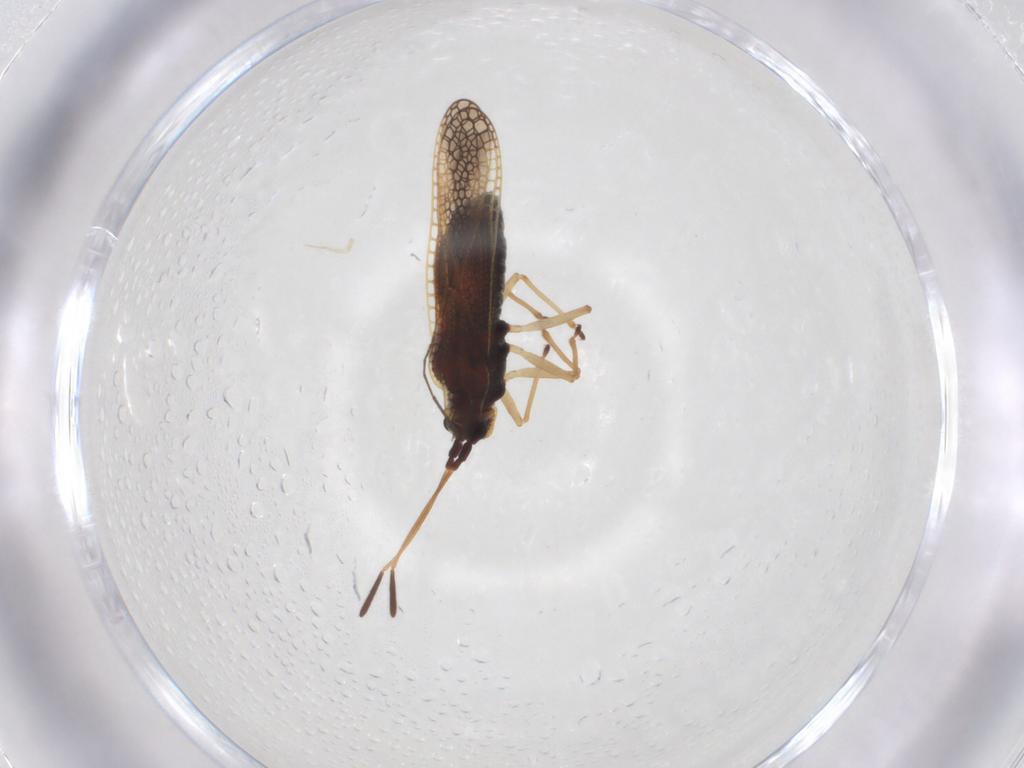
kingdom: Animalia
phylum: Arthropoda
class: Insecta
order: Hemiptera
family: Tingidae
